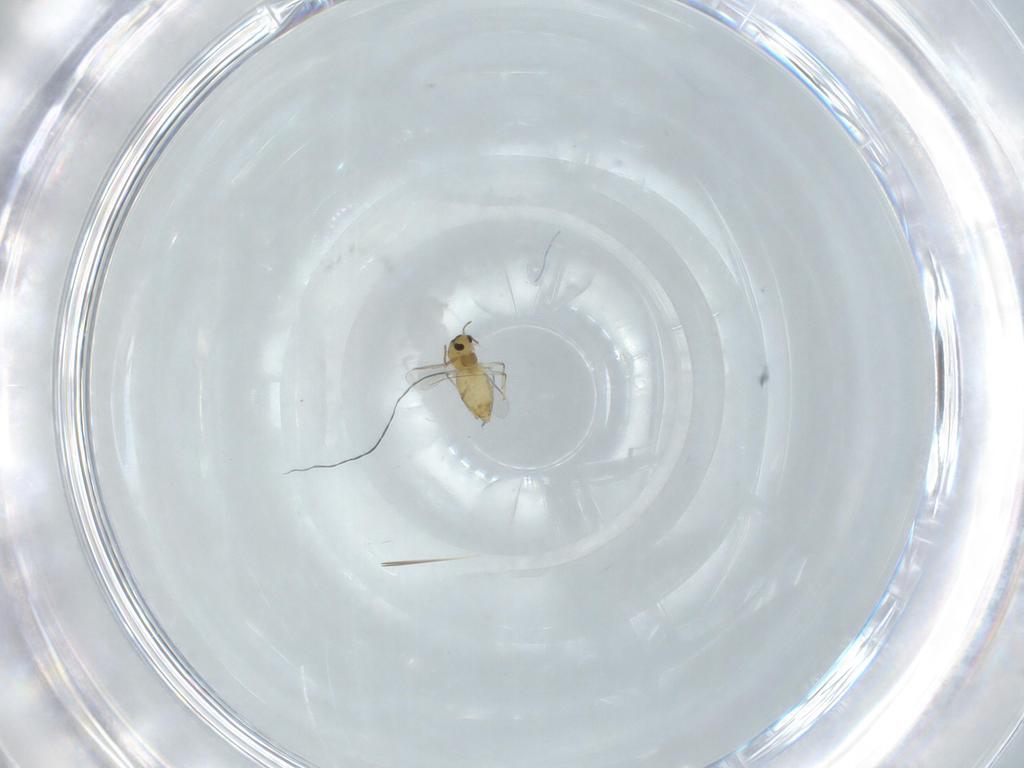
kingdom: Animalia
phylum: Arthropoda
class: Insecta
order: Diptera
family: Chironomidae
